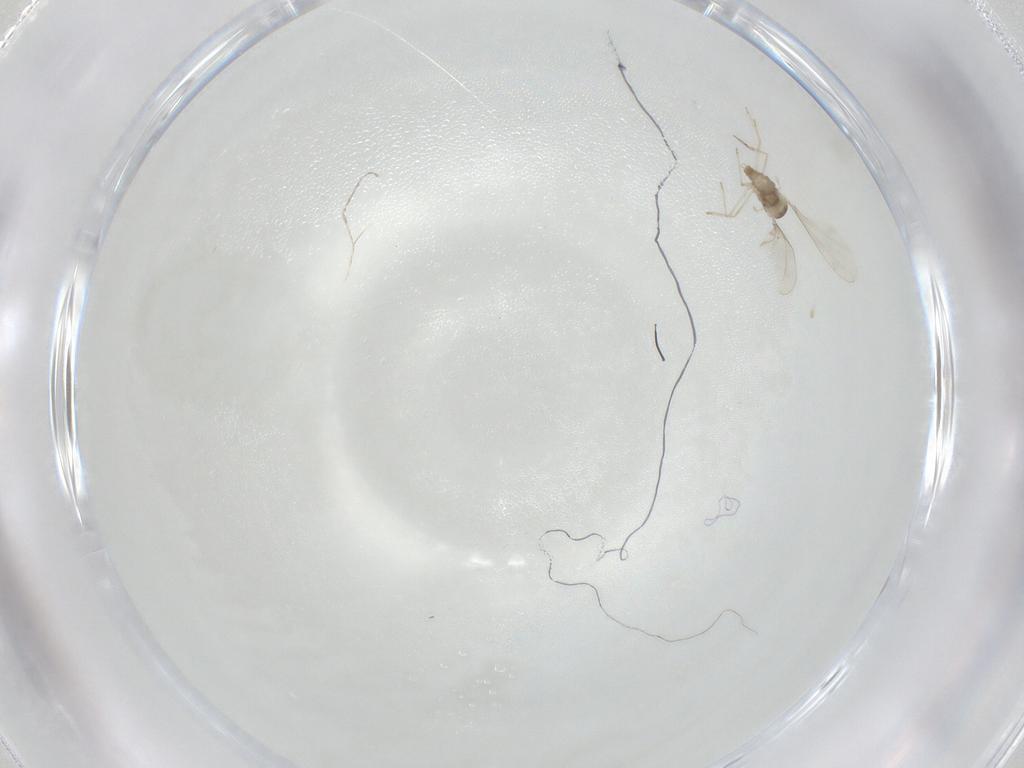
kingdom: Animalia
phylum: Arthropoda
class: Insecta
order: Diptera
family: Cecidomyiidae
